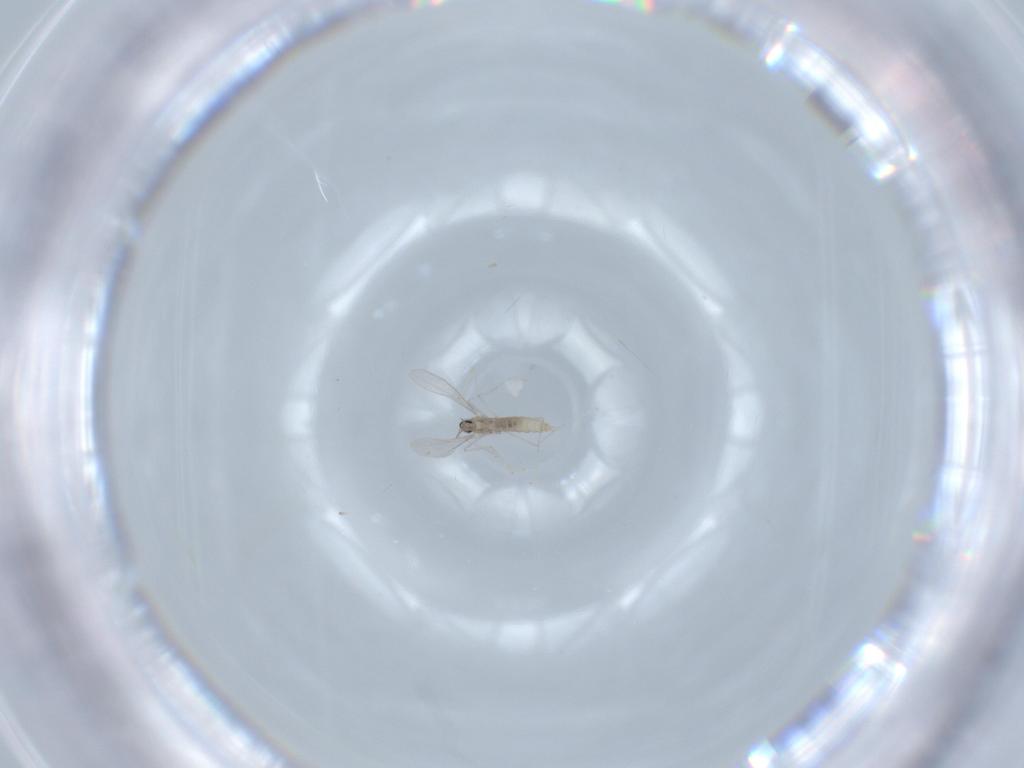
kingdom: Animalia
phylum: Arthropoda
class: Insecta
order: Diptera
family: Cecidomyiidae
